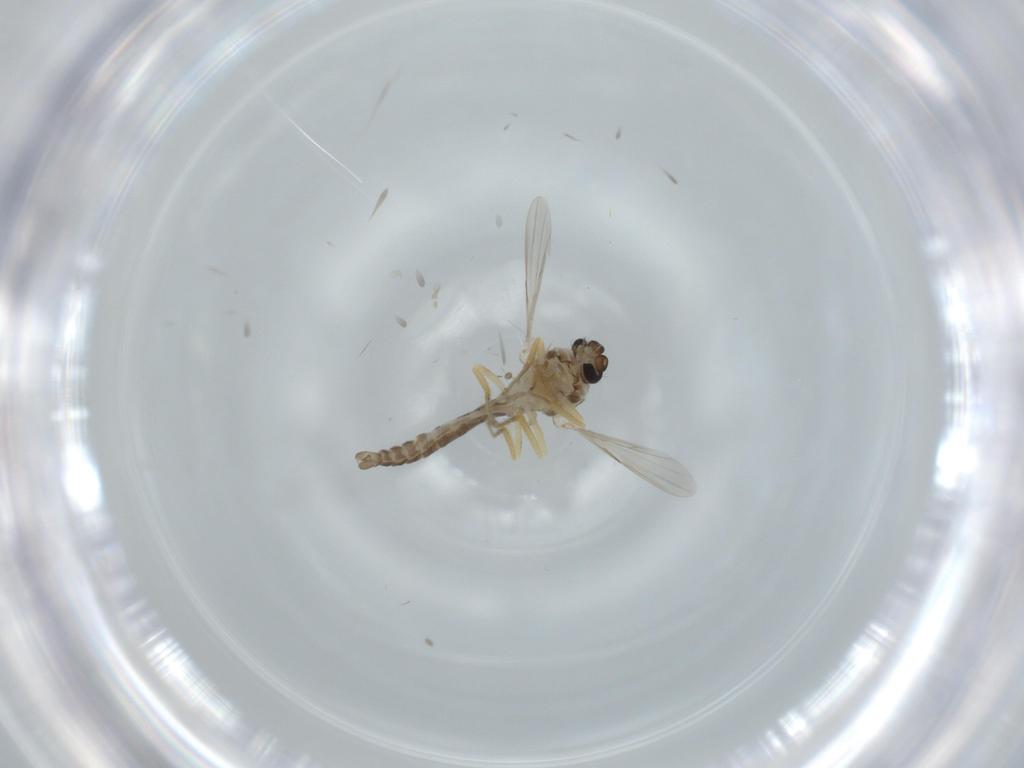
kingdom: Animalia
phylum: Arthropoda
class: Insecta
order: Diptera
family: Ceratopogonidae
